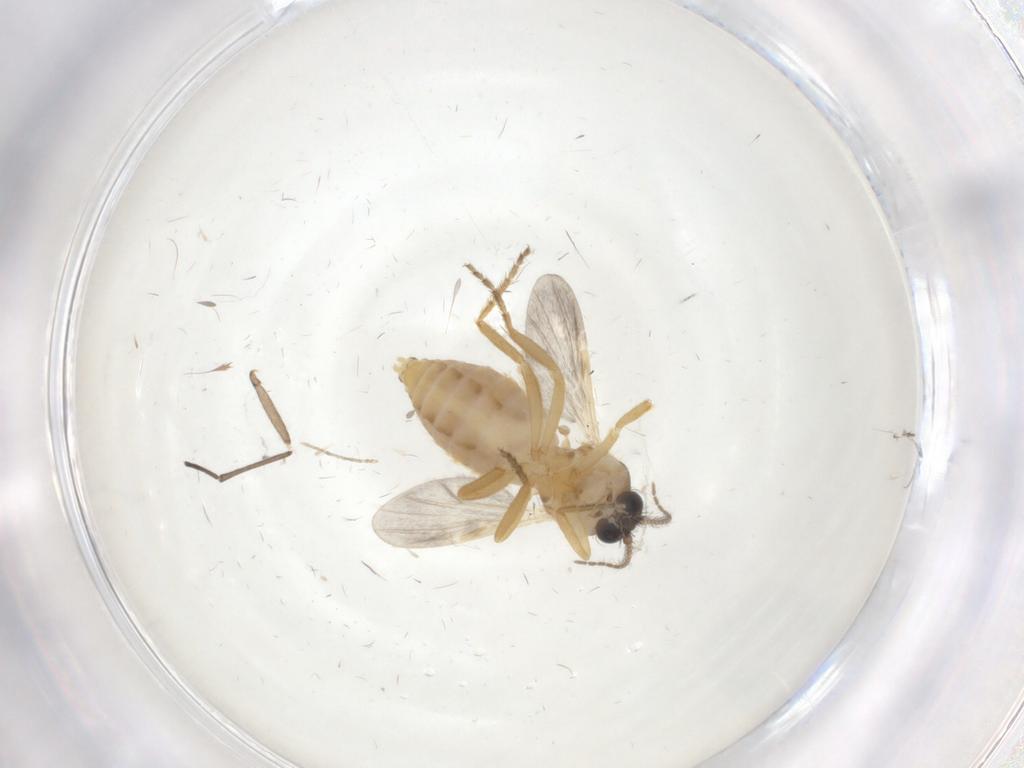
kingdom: Animalia
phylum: Arthropoda
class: Insecta
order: Diptera
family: Ceratopogonidae
